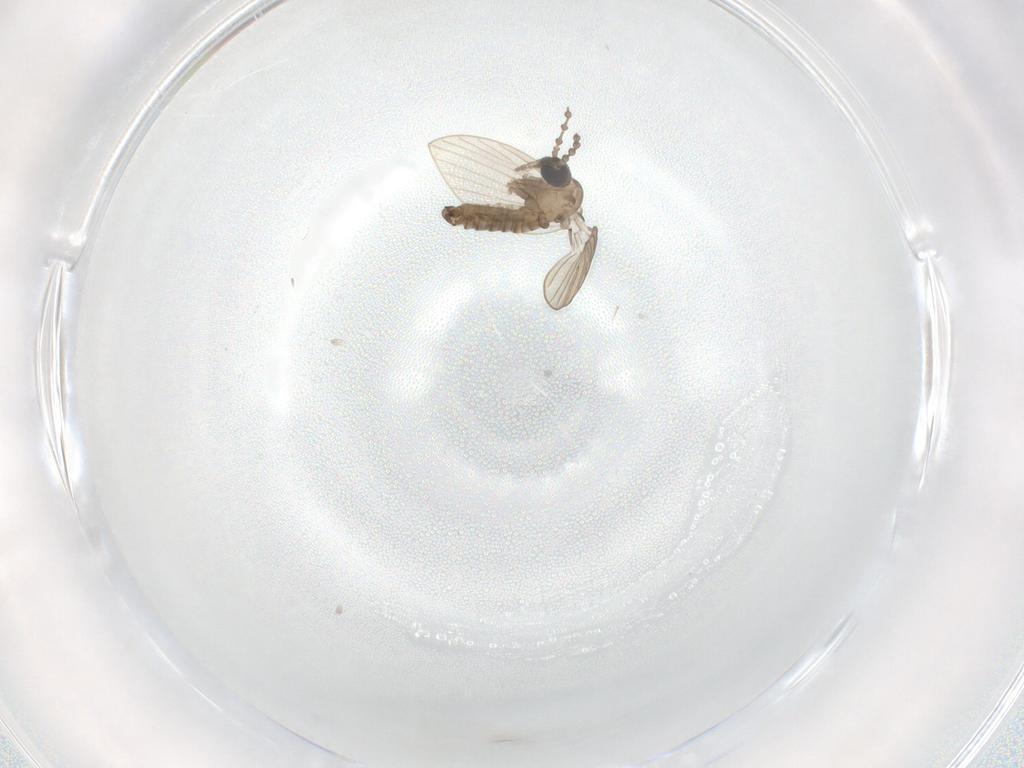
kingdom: Animalia
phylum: Arthropoda
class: Insecta
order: Diptera
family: Psychodidae
